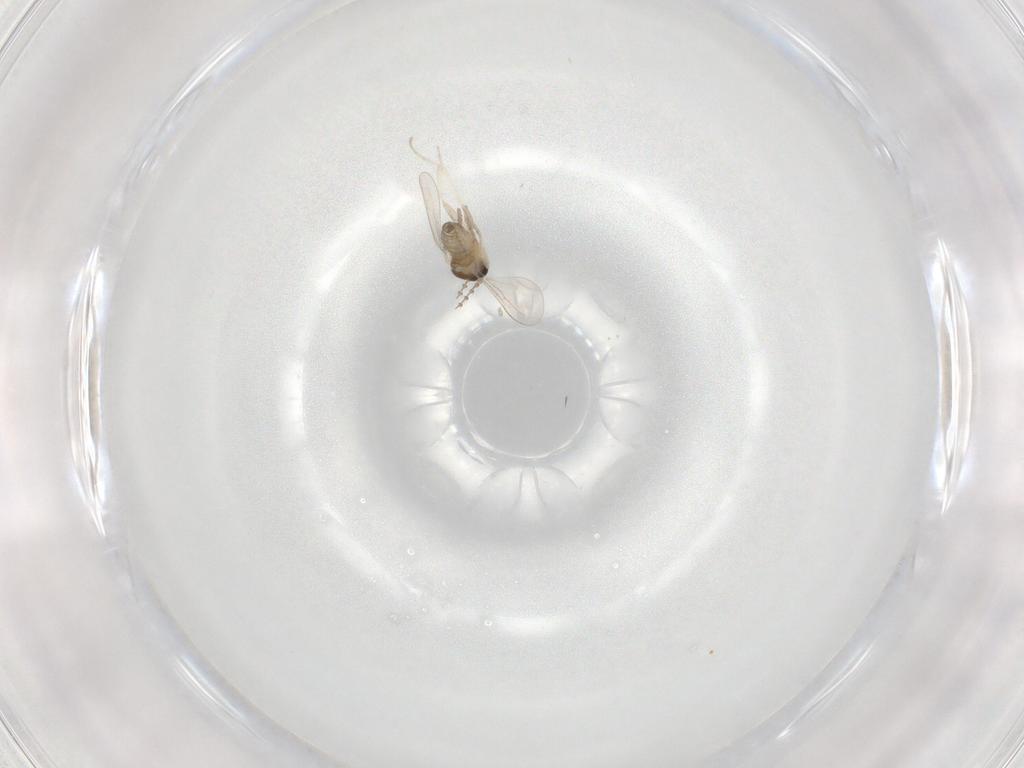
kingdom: Animalia
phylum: Arthropoda
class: Insecta
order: Diptera
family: Cecidomyiidae
